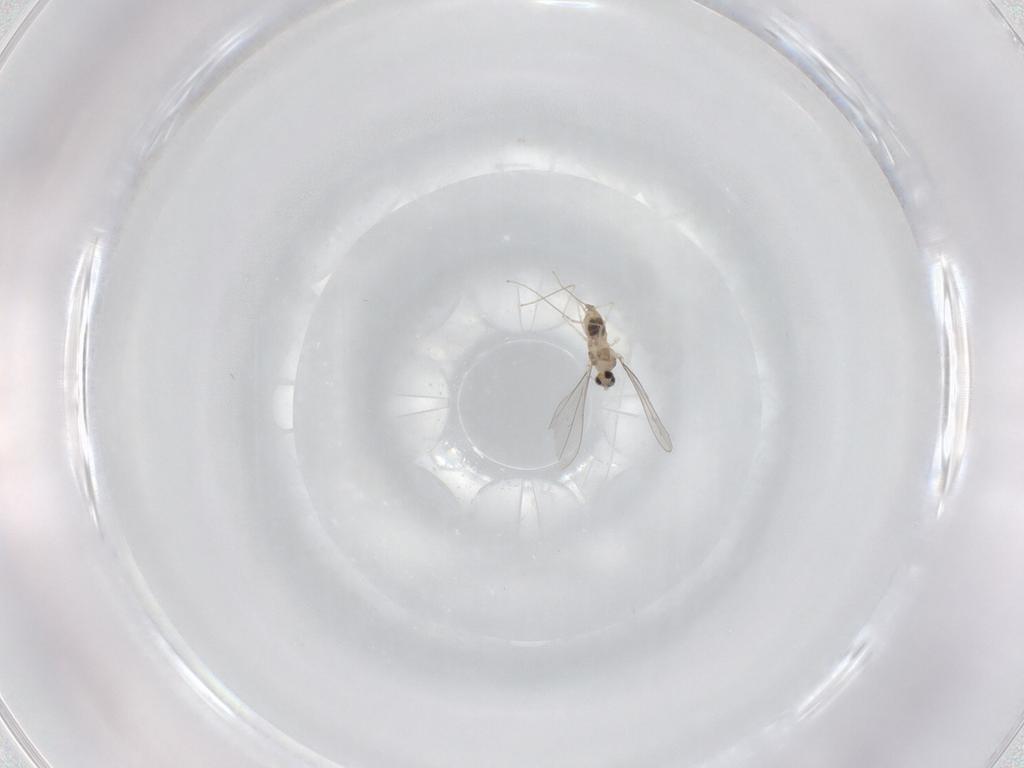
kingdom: Animalia
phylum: Arthropoda
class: Insecta
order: Diptera
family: Cecidomyiidae
